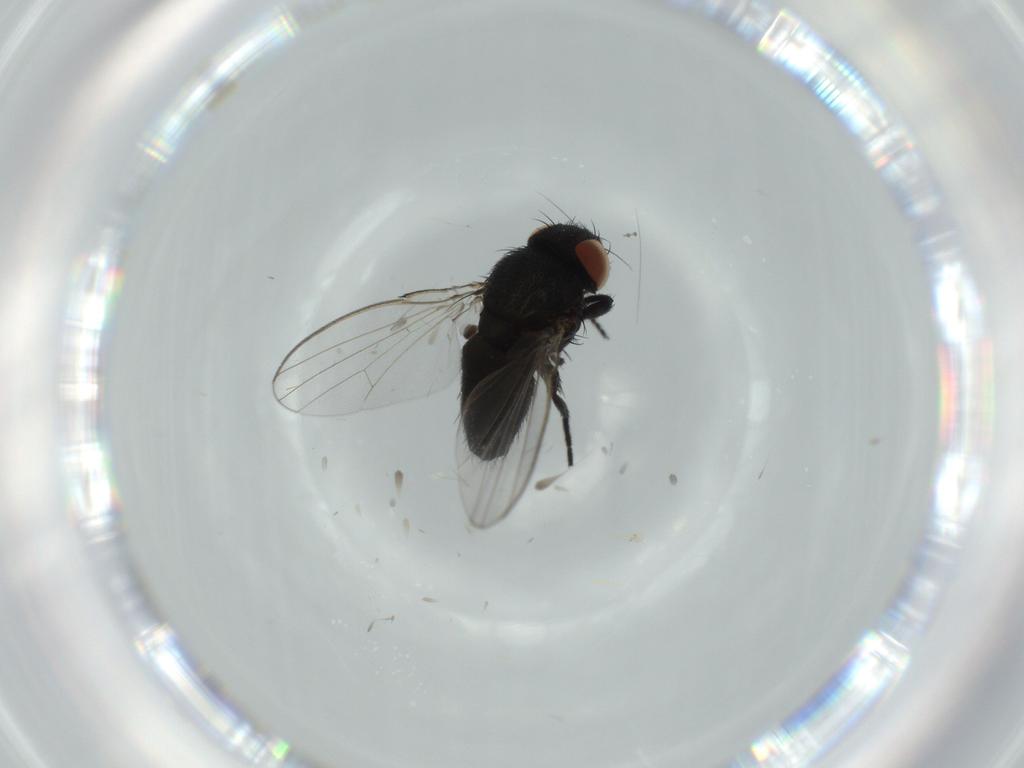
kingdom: Animalia
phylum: Arthropoda
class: Insecta
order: Diptera
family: Milichiidae
